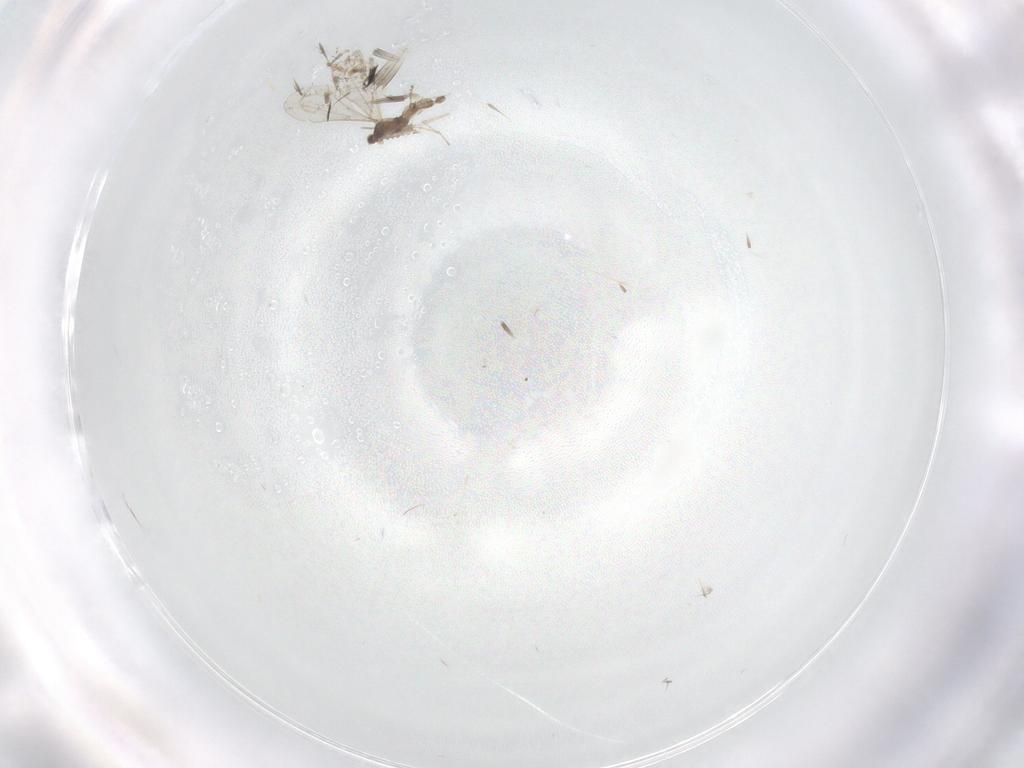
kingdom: Animalia
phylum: Arthropoda
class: Insecta
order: Diptera
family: Cecidomyiidae
